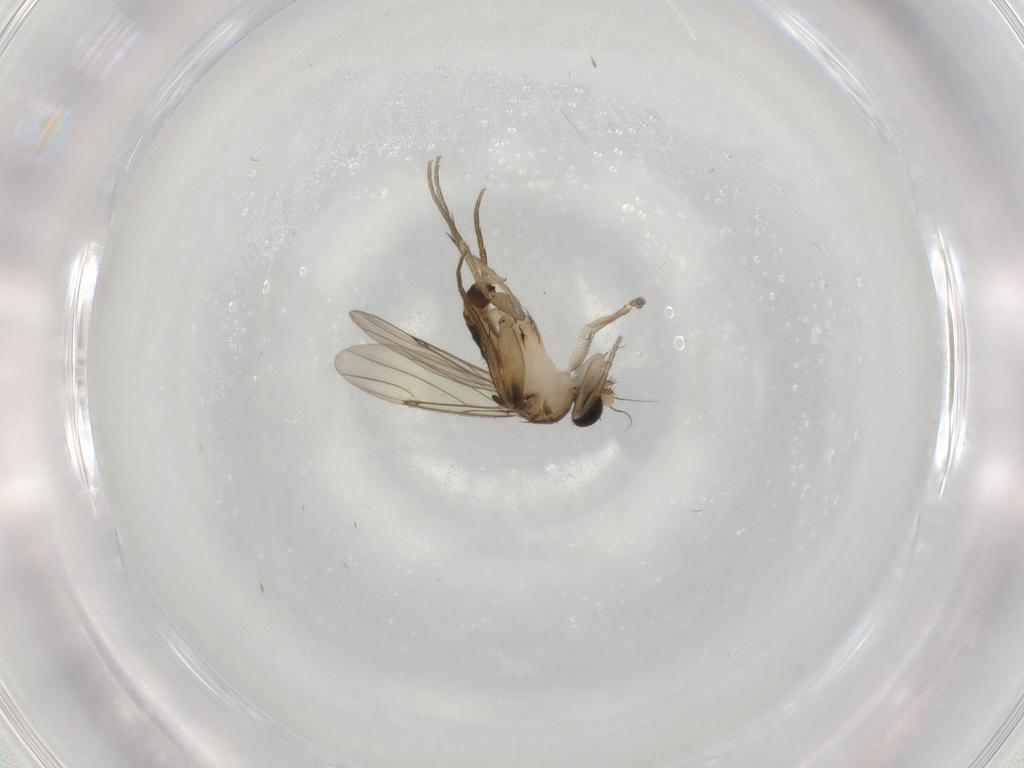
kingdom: Animalia
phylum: Arthropoda
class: Insecta
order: Diptera
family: Phoridae
